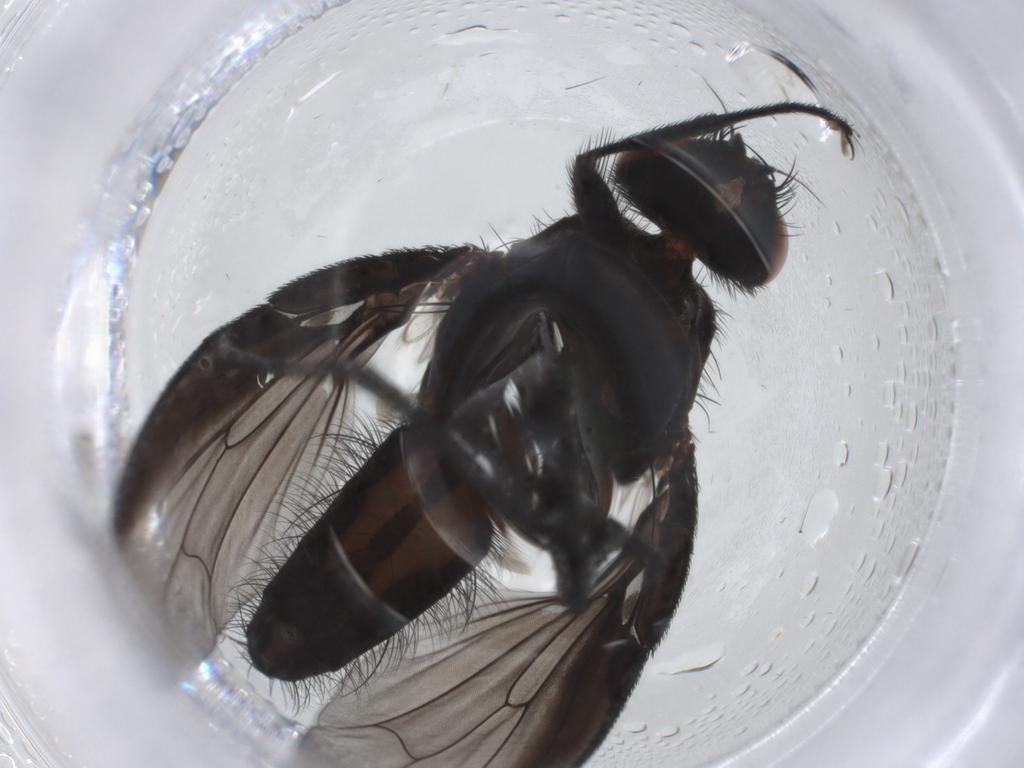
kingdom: Animalia
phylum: Arthropoda
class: Insecta
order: Diptera
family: Anthomyiidae
